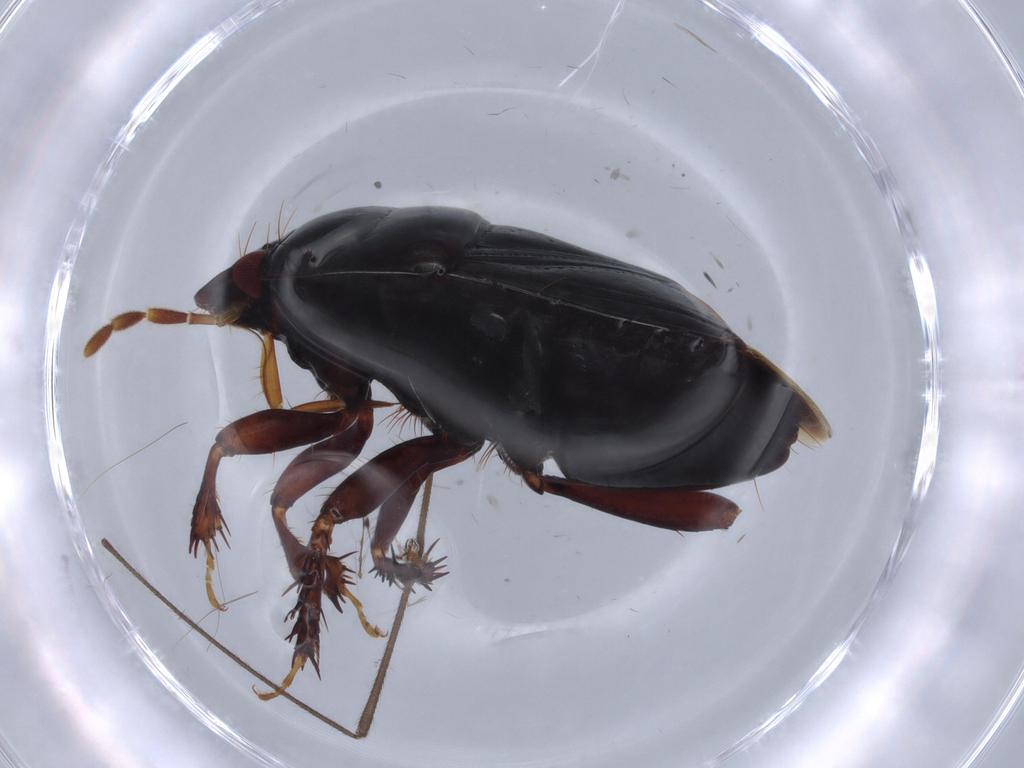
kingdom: Animalia
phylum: Arthropoda
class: Insecta
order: Hemiptera
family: Cydnidae
